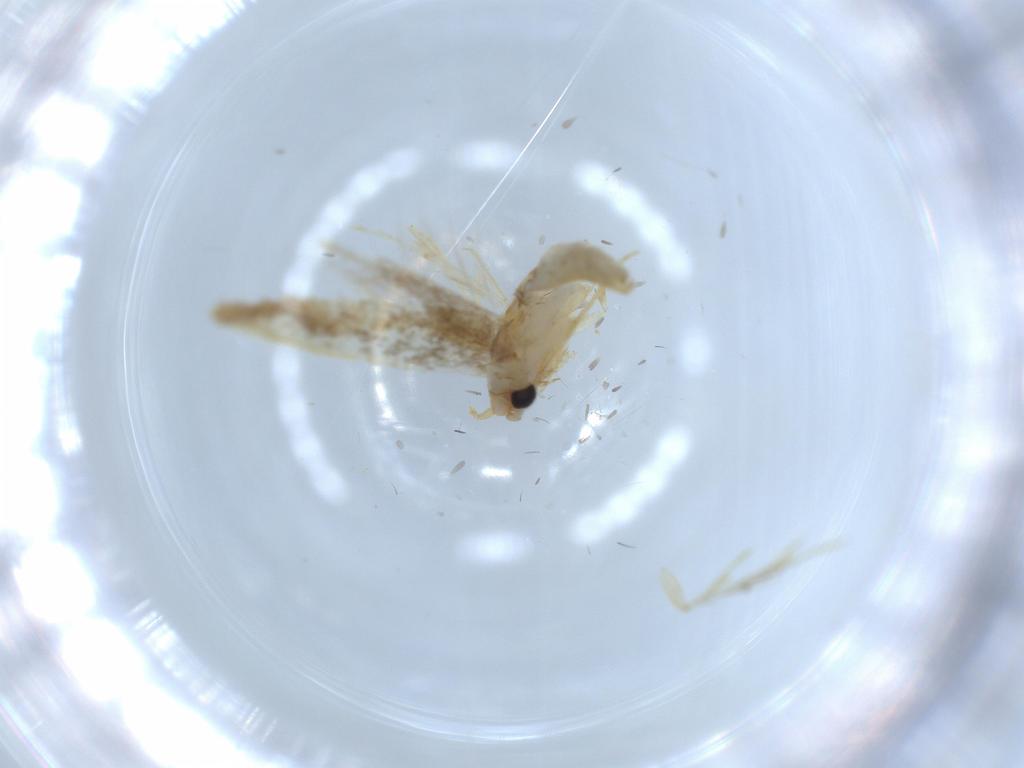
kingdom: Animalia
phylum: Arthropoda
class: Insecta
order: Lepidoptera
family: Tineidae
